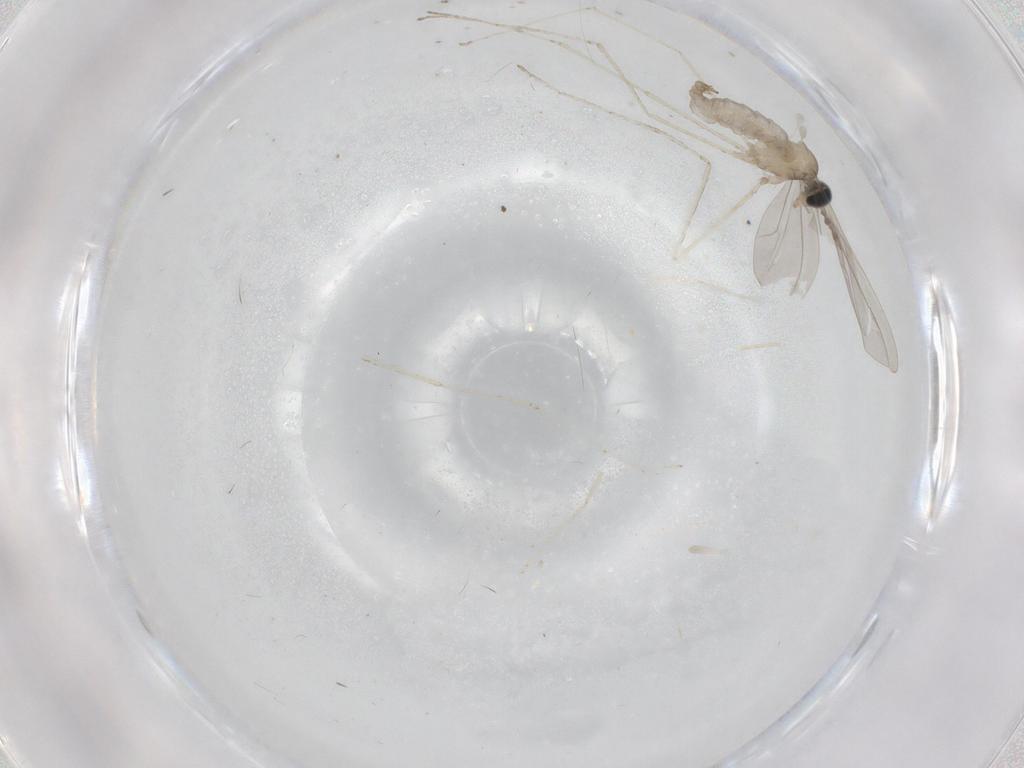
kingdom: Animalia
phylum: Arthropoda
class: Insecta
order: Diptera
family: Cecidomyiidae
